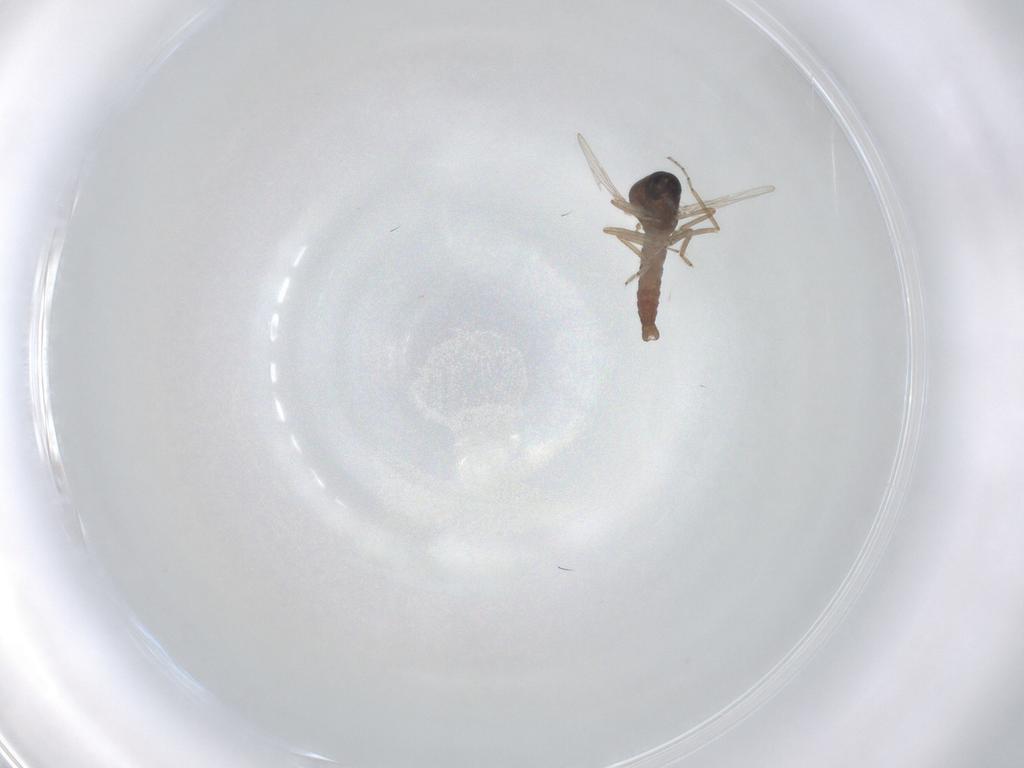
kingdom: Animalia
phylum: Arthropoda
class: Insecta
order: Diptera
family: Ceratopogonidae
